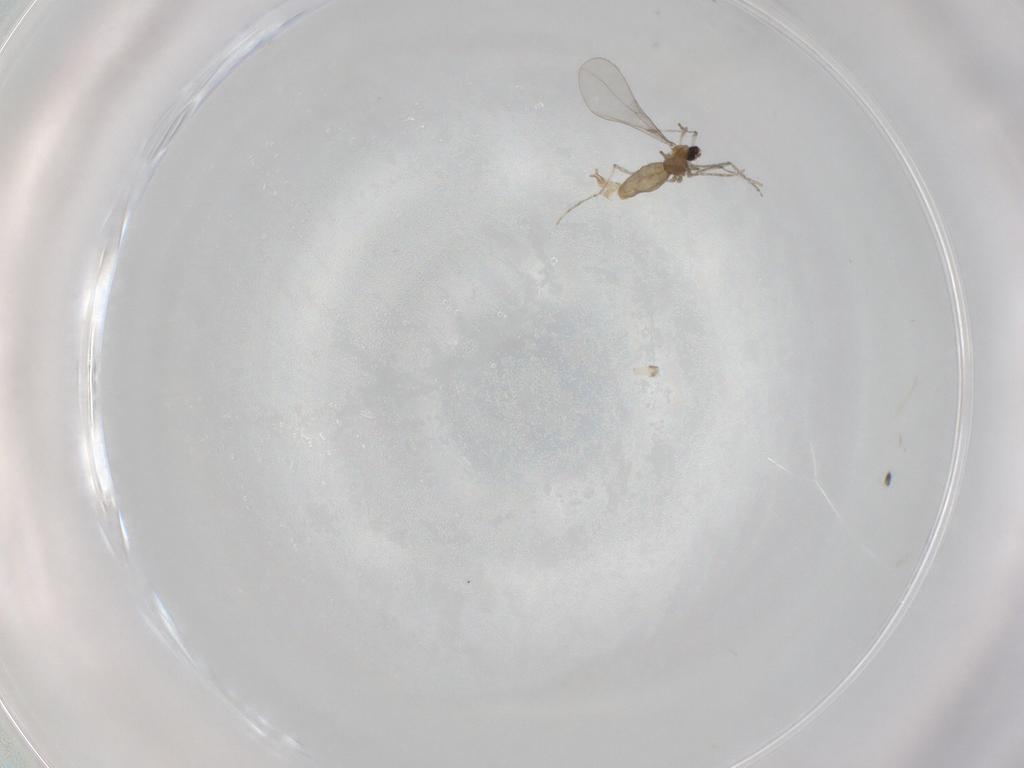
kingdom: Animalia
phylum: Arthropoda
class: Insecta
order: Diptera
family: Cecidomyiidae
